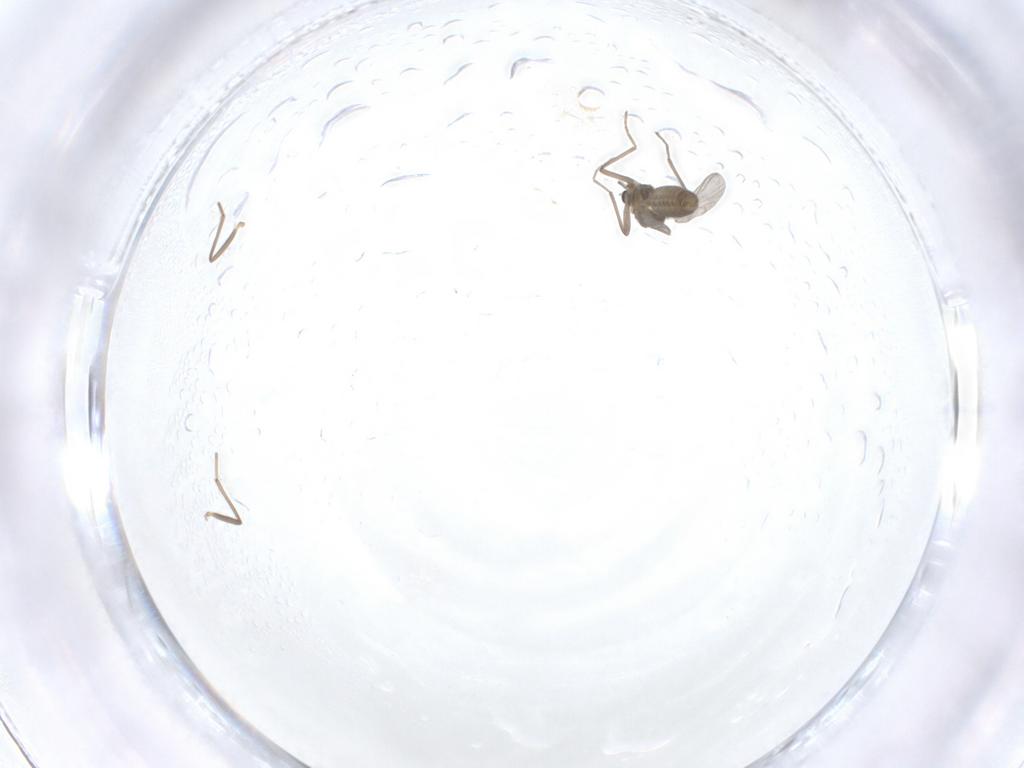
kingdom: Animalia
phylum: Arthropoda
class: Insecta
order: Diptera
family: Chironomidae
